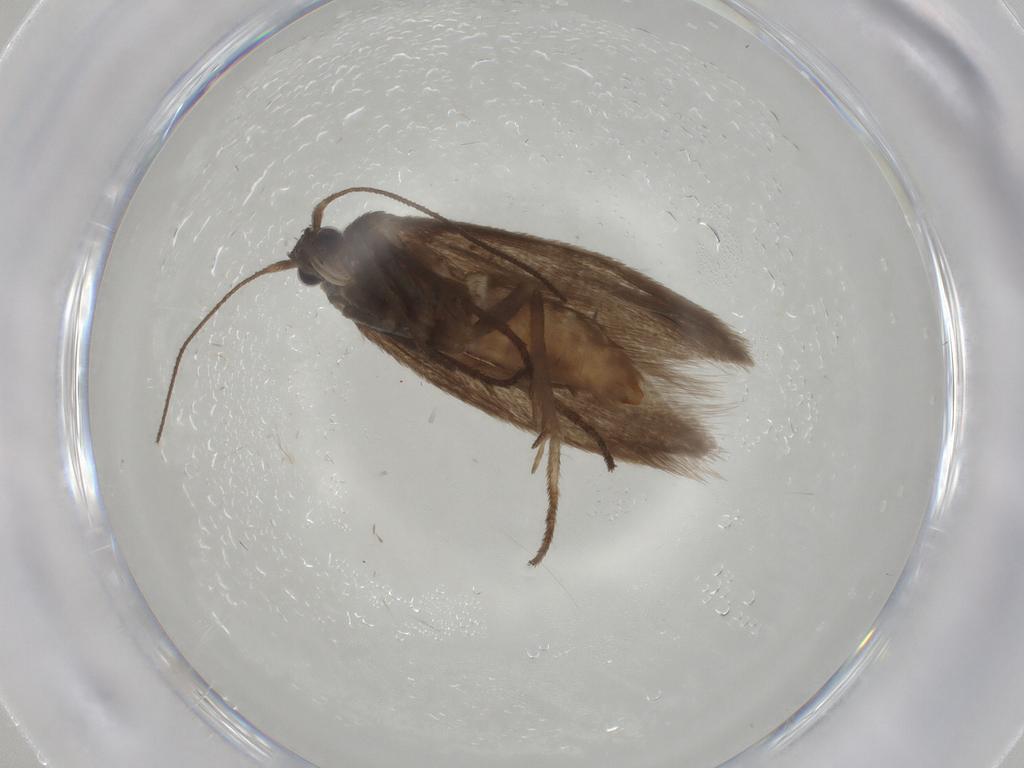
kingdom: Animalia
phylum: Arthropoda
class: Insecta
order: Lepidoptera
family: Limacodidae
